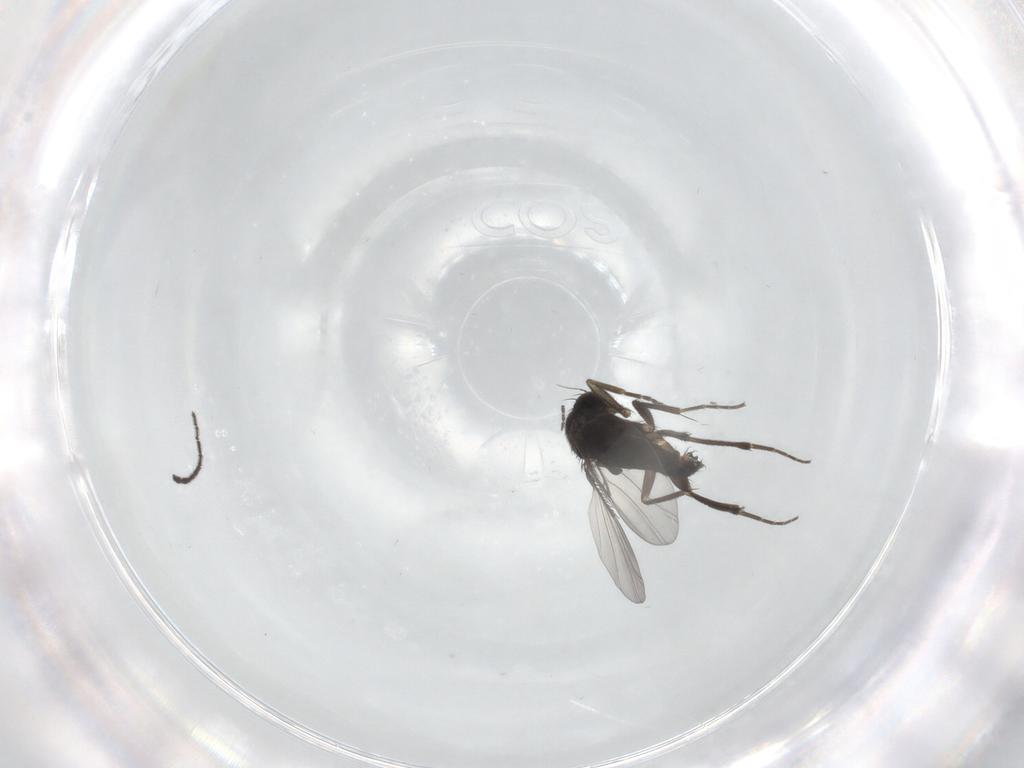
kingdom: Animalia
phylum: Arthropoda
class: Insecta
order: Diptera
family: Phoridae
